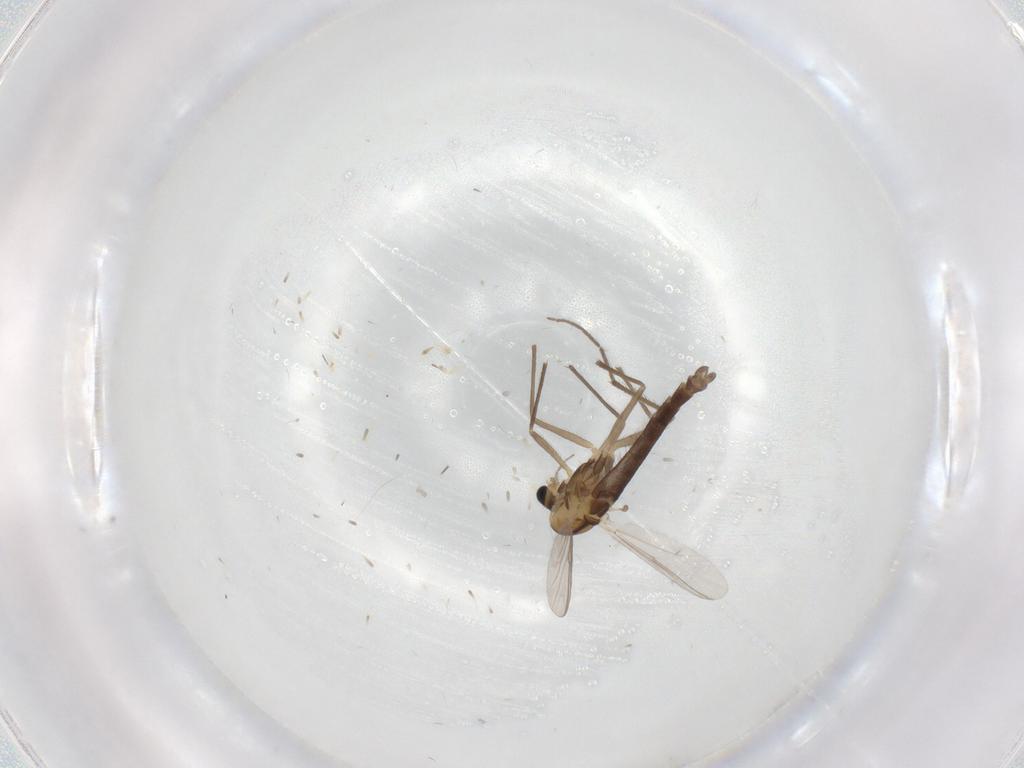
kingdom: Animalia
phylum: Arthropoda
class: Insecta
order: Diptera
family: Chironomidae
